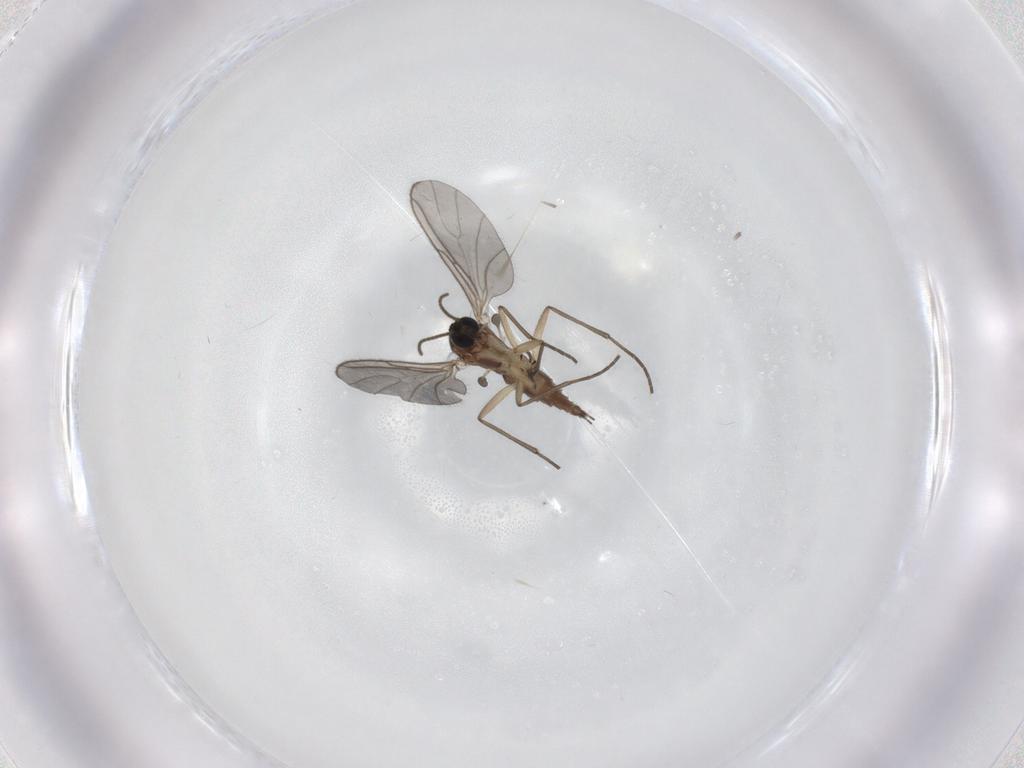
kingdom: Animalia
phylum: Arthropoda
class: Insecta
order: Diptera
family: Sciaridae
